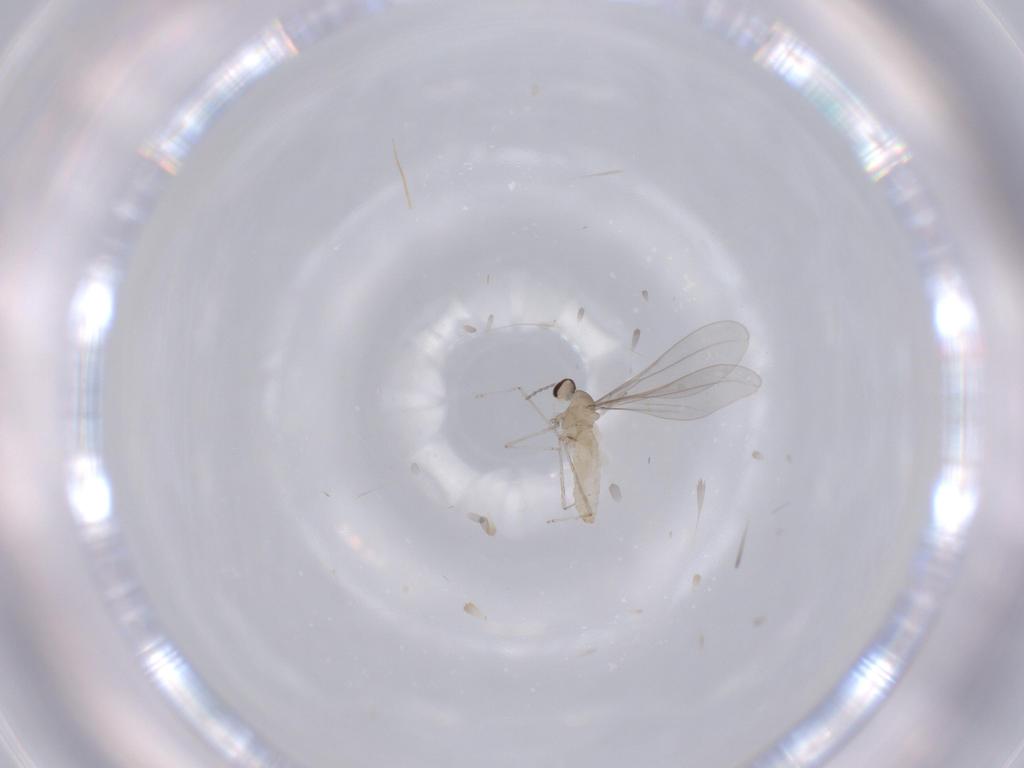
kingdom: Animalia
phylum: Arthropoda
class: Insecta
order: Diptera
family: Cecidomyiidae
